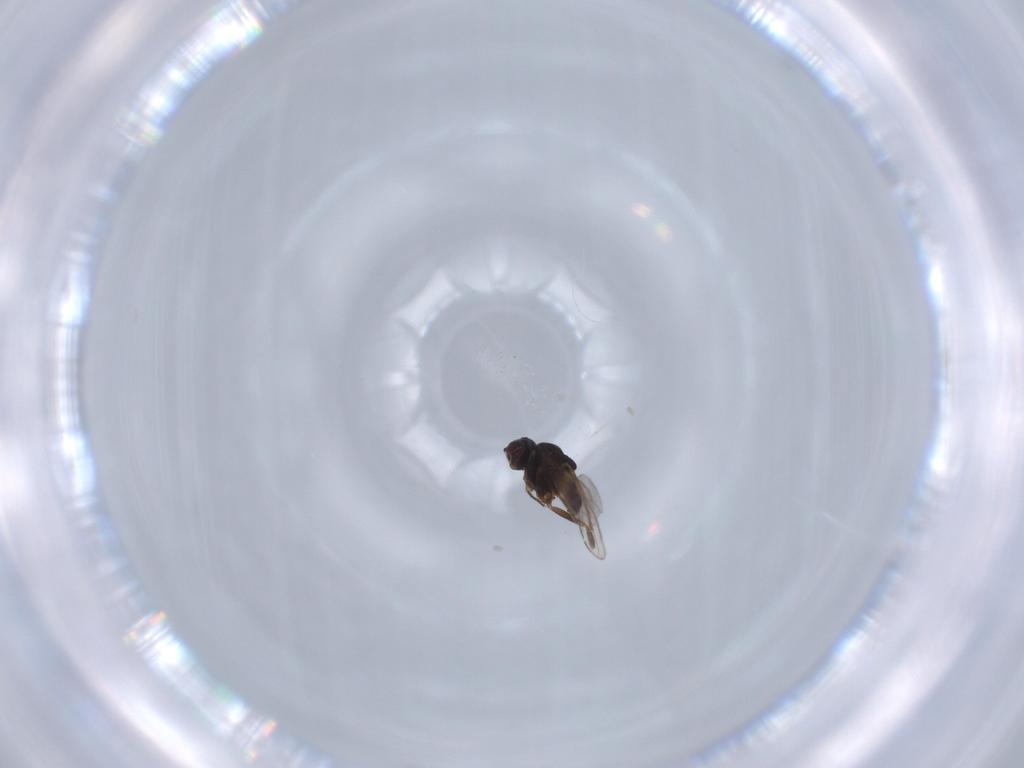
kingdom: Animalia
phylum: Arthropoda
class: Insecta
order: Diptera
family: Chloropidae
